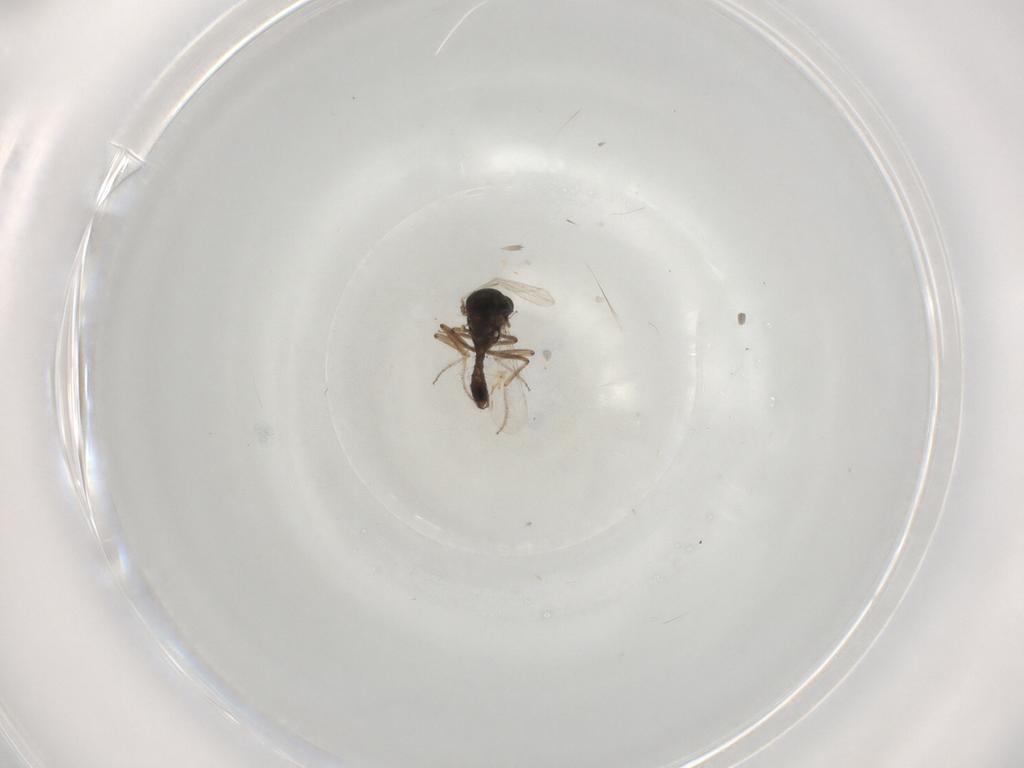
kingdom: Animalia
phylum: Arthropoda
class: Insecta
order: Diptera
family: Ceratopogonidae
